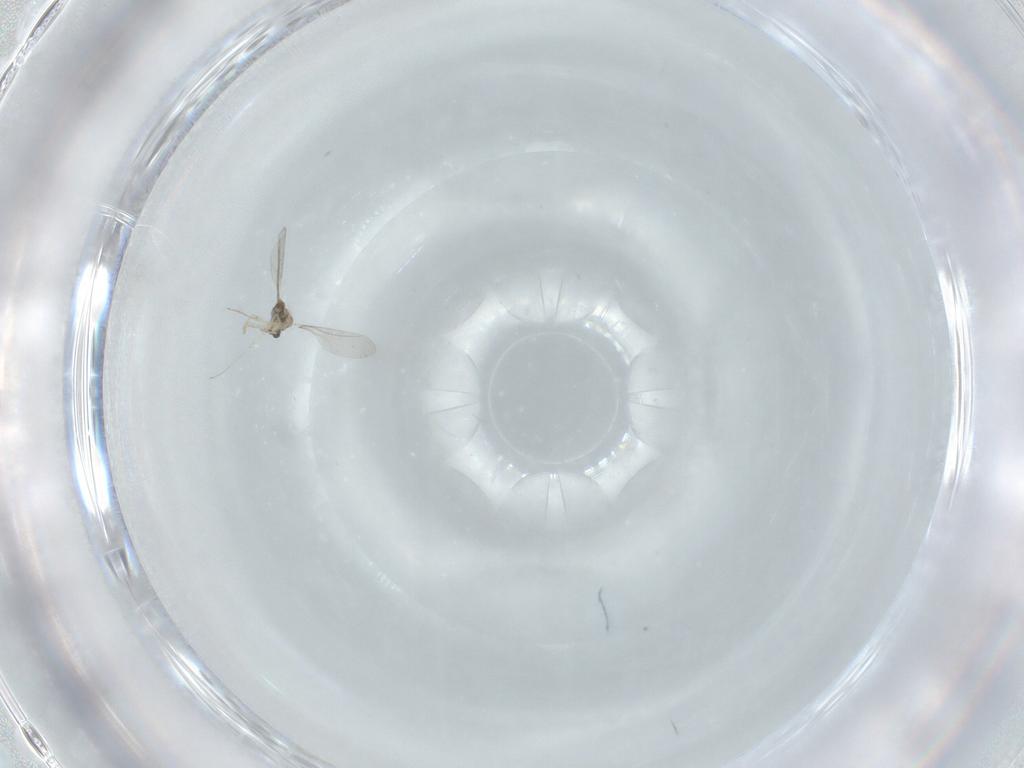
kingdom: Animalia
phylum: Arthropoda
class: Insecta
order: Diptera
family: Cecidomyiidae
